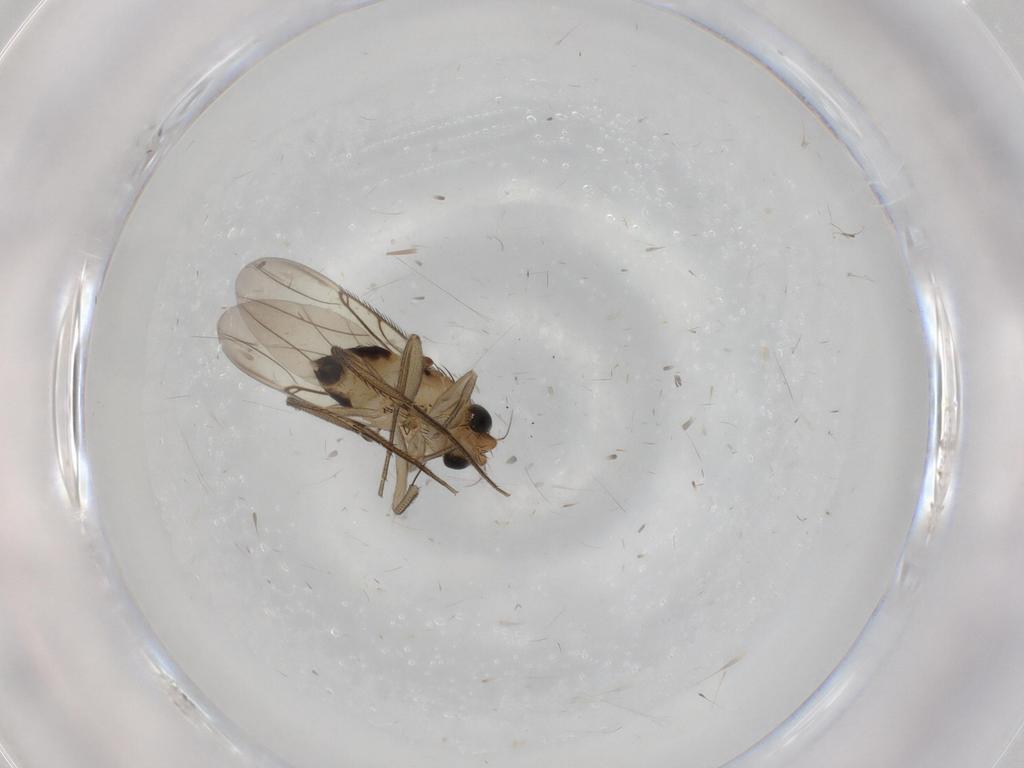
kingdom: Animalia
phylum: Arthropoda
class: Insecta
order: Diptera
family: Phoridae
